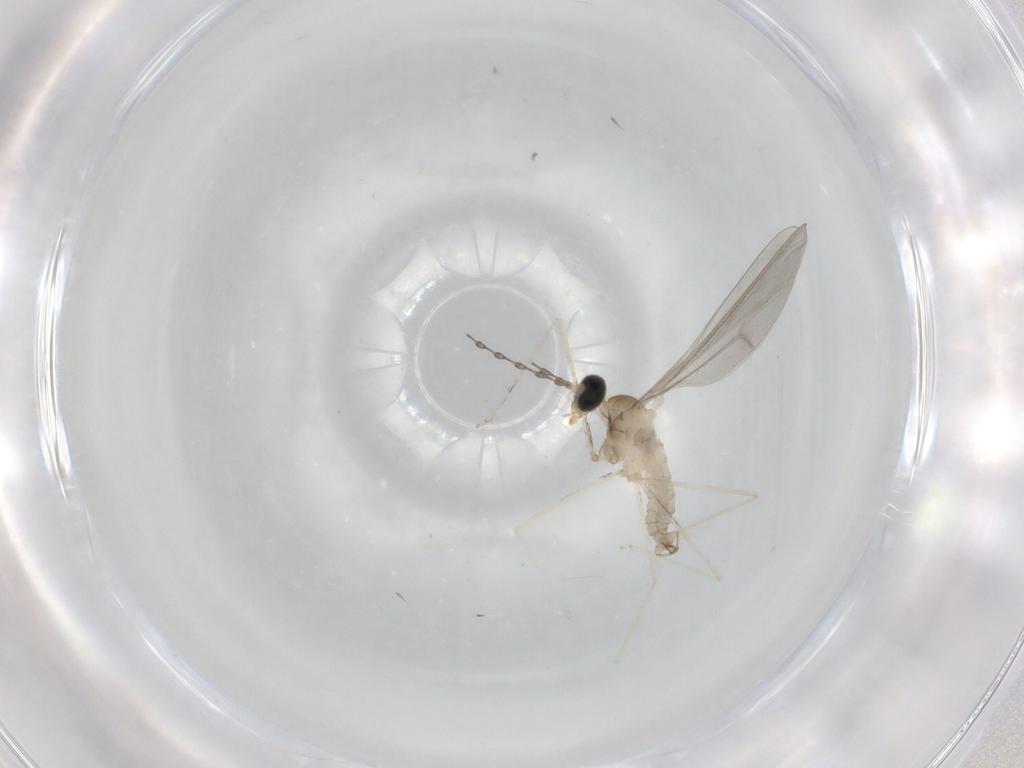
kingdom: Animalia
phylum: Arthropoda
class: Insecta
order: Diptera
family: Cecidomyiidae
